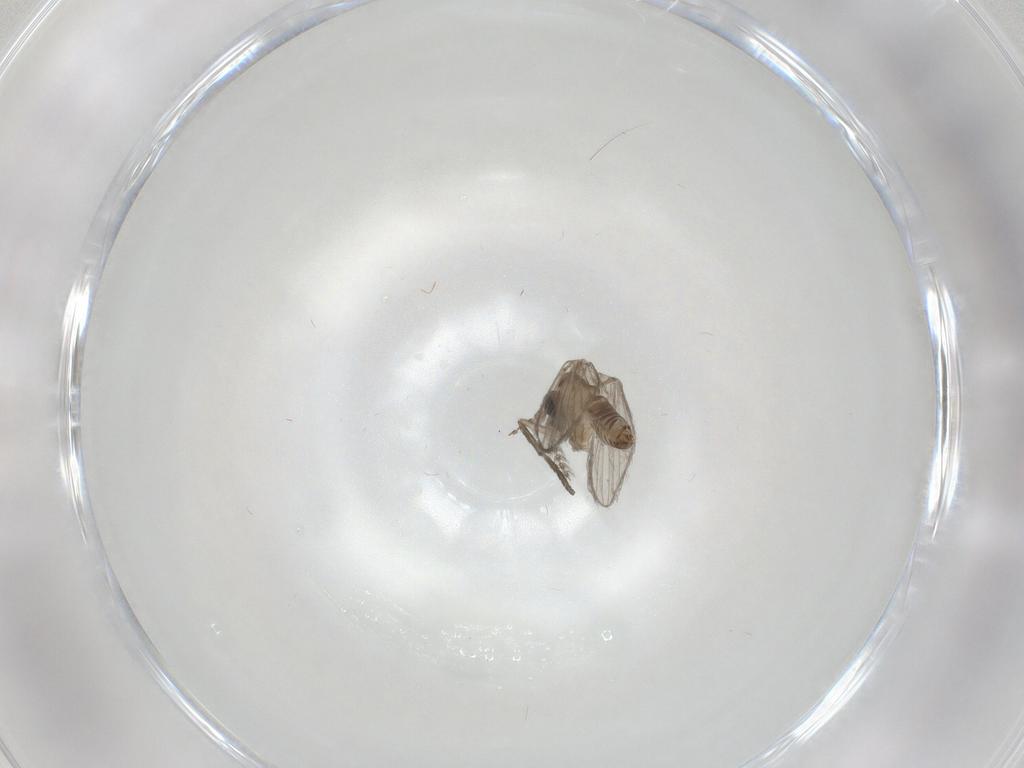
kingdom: Animalia
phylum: Arthropoda
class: Insecta
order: Diptera
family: Psychodidae
